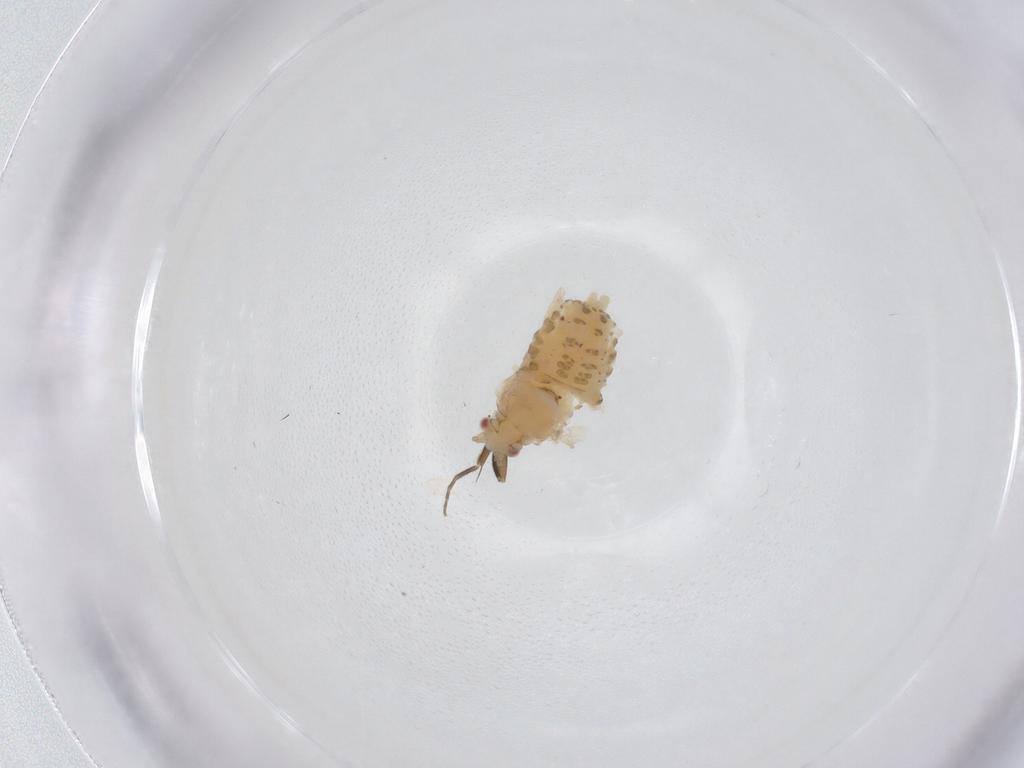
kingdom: Animalia
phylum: Arthropoda
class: Insecta
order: Hemiptera
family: Aphididae
